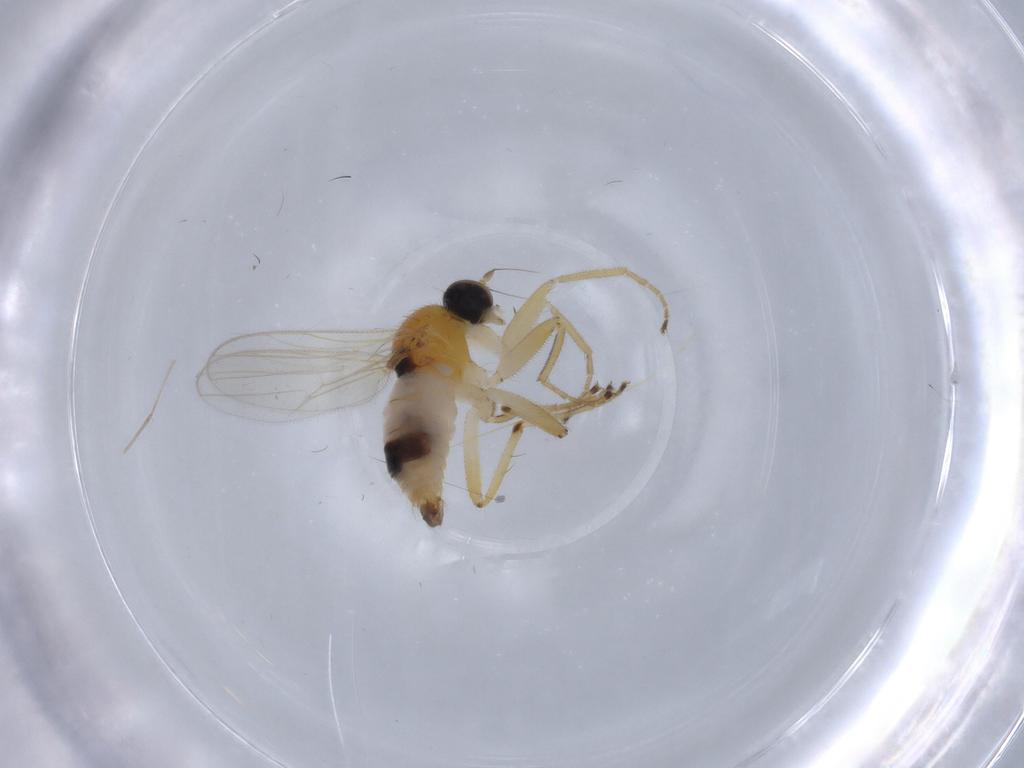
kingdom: Animalia
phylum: Arthropoda
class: Insecta
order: Diptera
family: Hybotidae
